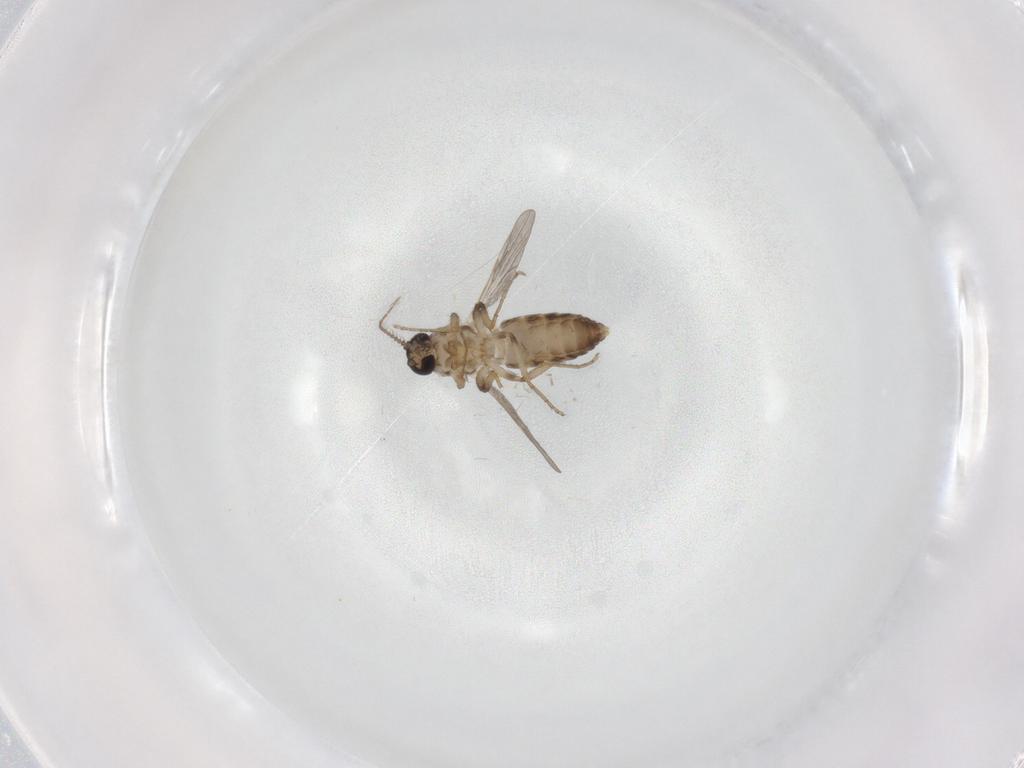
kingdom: Animalia
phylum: Arthropoda
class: Insecta
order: Diptera
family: Chironomidae
